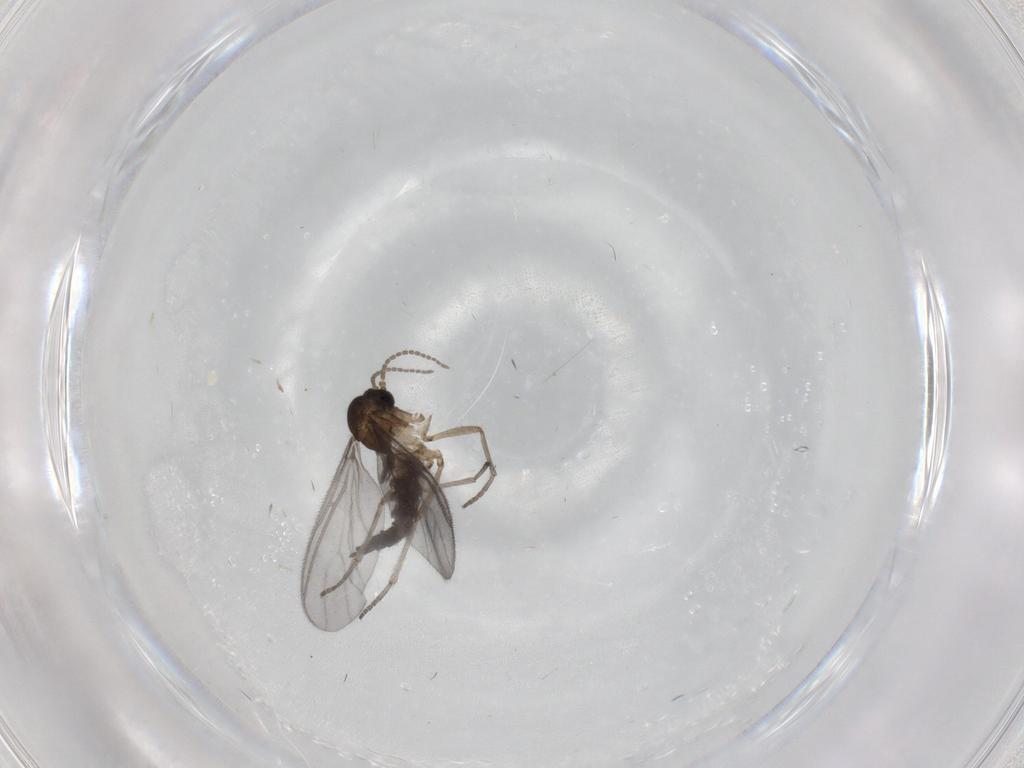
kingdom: Animalia
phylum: Arthropoda
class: Insecta
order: Diptera
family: Sciaridae
